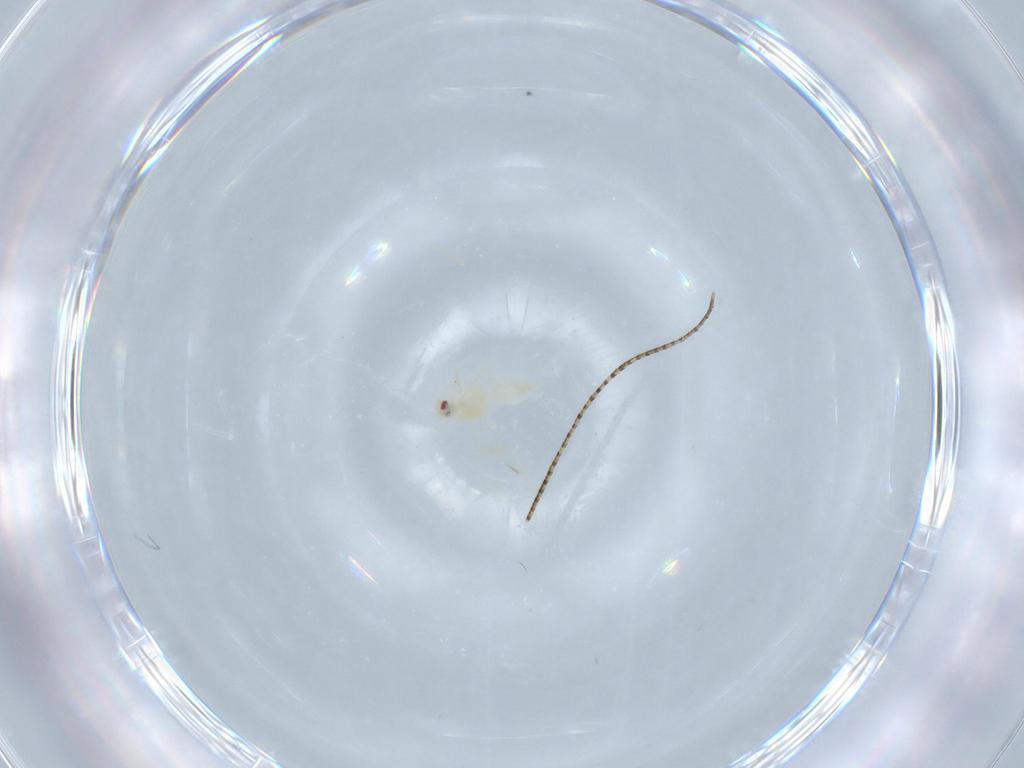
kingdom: Animalia
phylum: Arthropoda
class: Insecta
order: Hemiptera
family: Aleyrodidae
